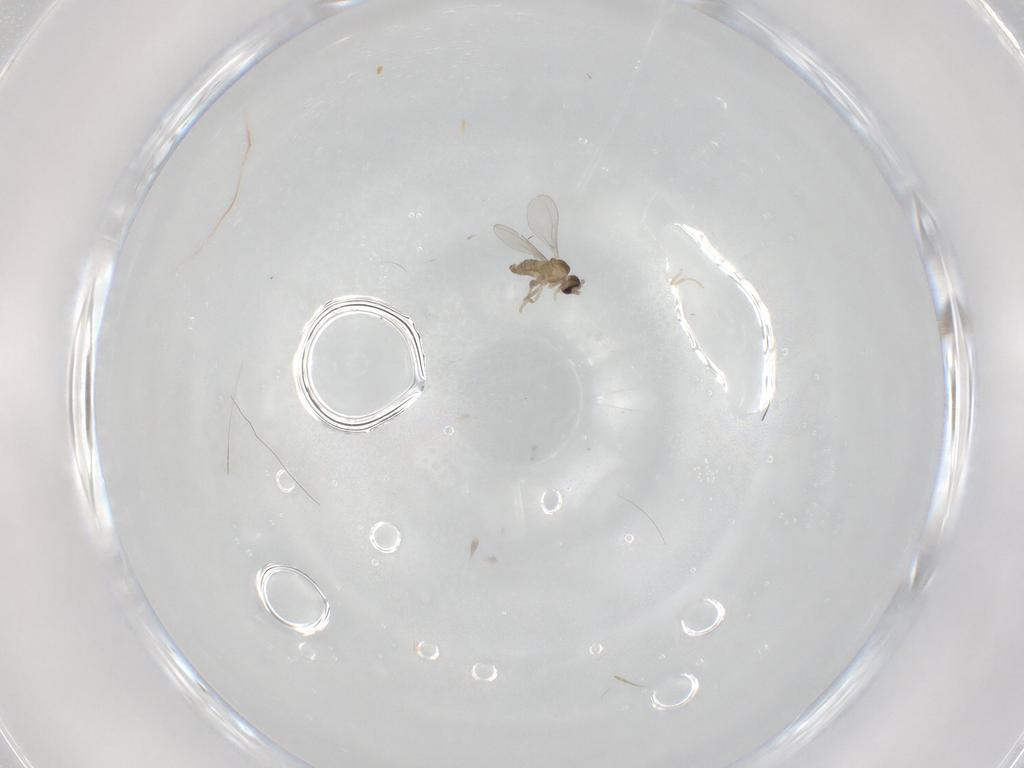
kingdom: Animalia
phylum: Arthropoda
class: Insecta
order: Diptera
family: Cecidomyiidae
